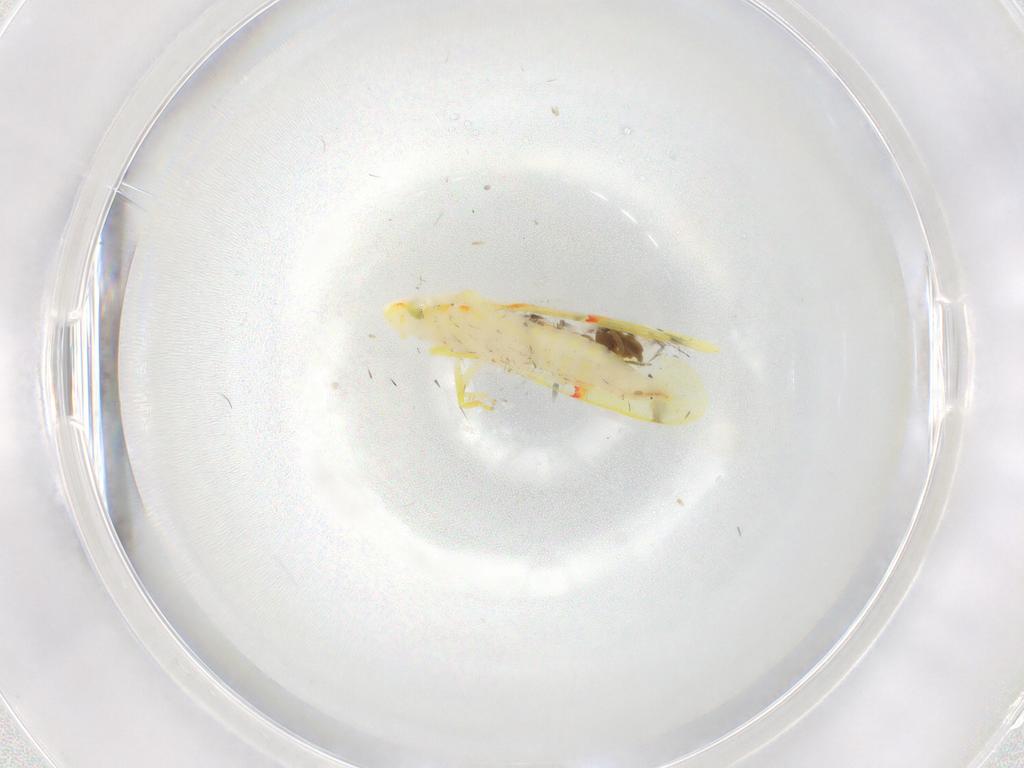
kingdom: Animalia
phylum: Arthropoda
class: Insecta
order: Hemiptera
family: Cicadellidae
